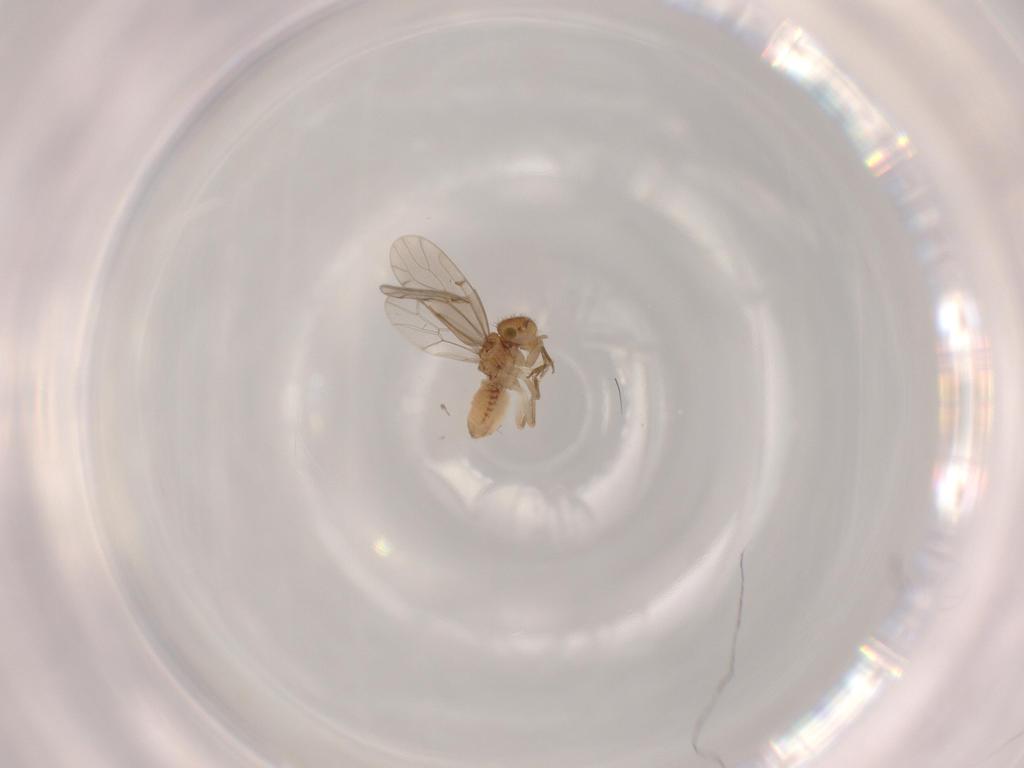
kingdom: Animalia
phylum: Arthropoda
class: Insecta
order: Psocodea
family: Ectopsocidae
